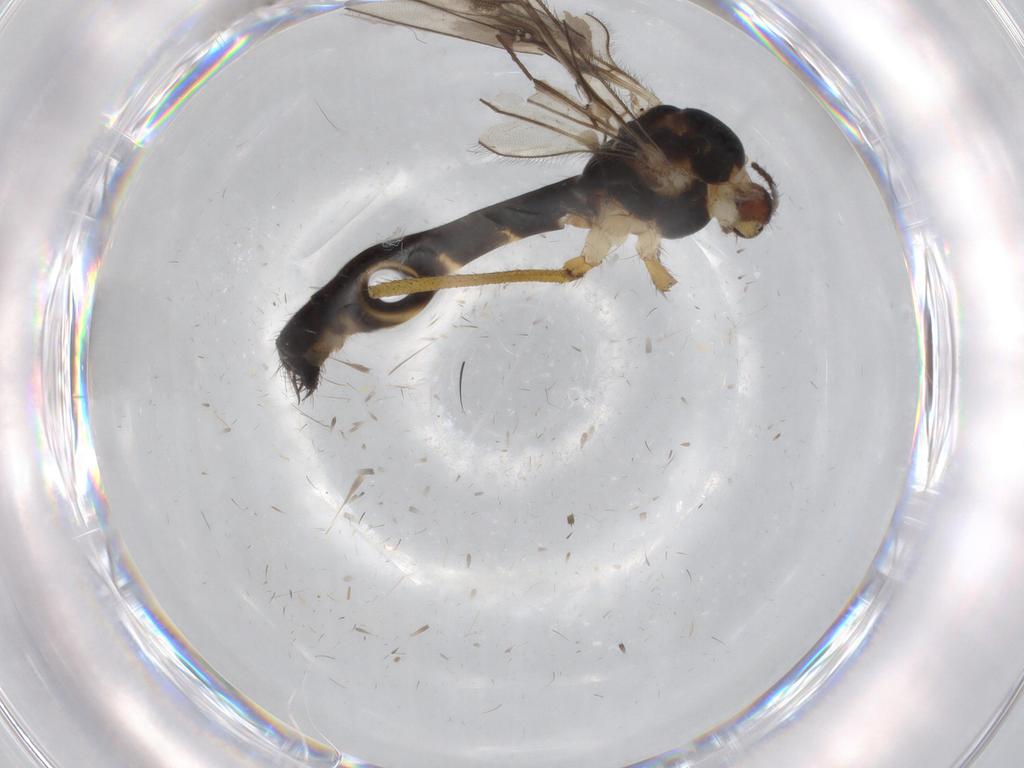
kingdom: Animalia
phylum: Arthropoda
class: Insecta
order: Diptera
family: Limoniidae
